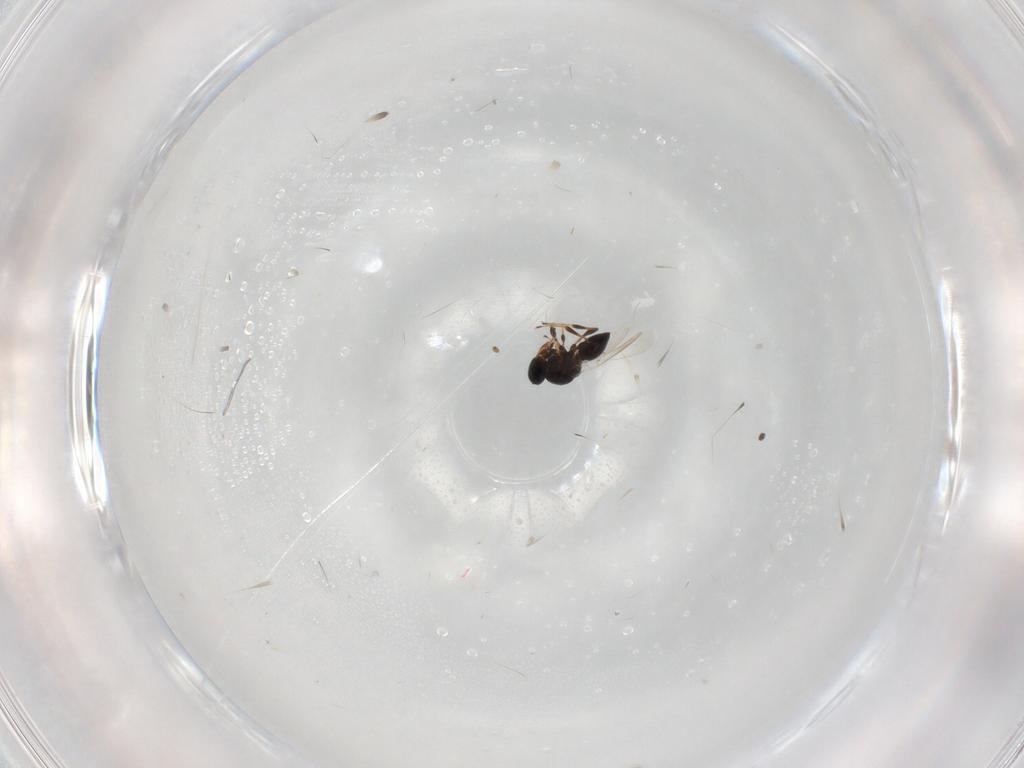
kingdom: Animalia
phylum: Arthropoda
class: Insecta
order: Hymenoptera
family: Platygastridae
